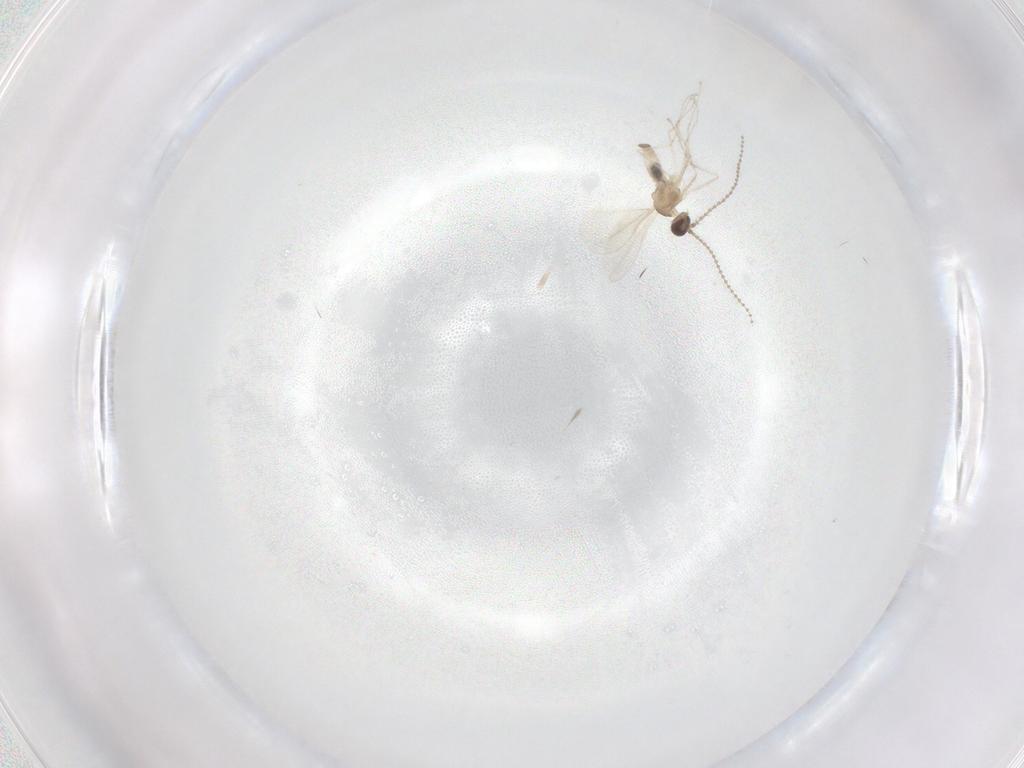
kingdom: Animalia
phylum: Arthropoda
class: Insecta
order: Diptera
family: Cecidomyiidae
